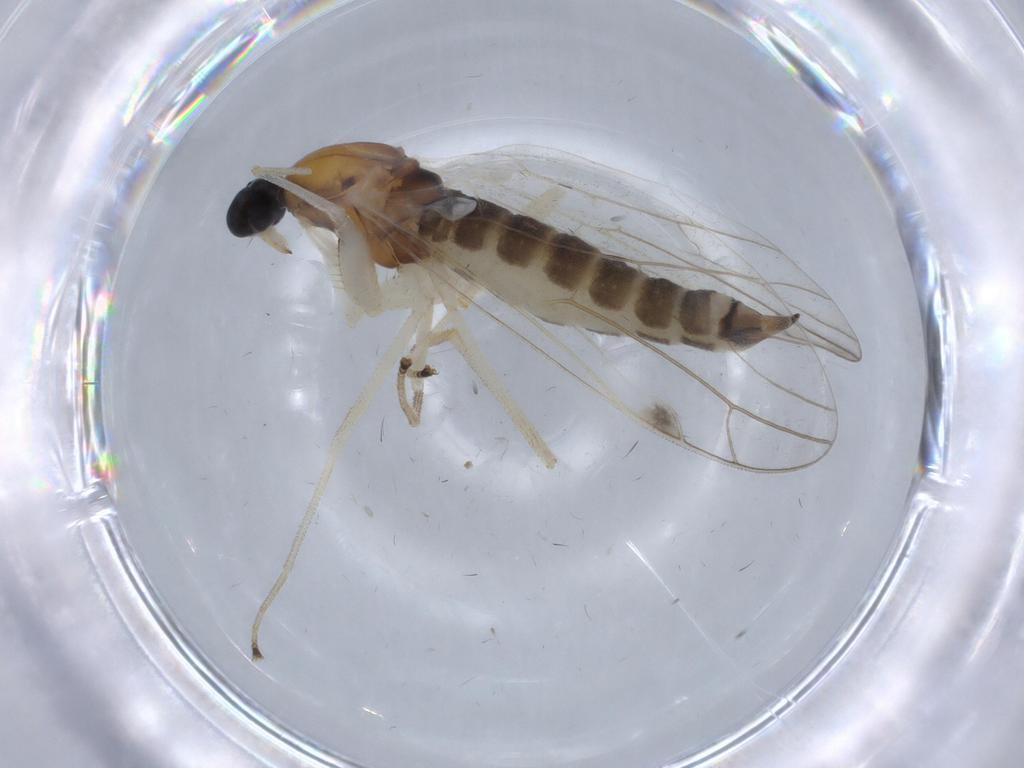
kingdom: Animalia
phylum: Arthropoda
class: Insecta
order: Diptera
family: Empididae
